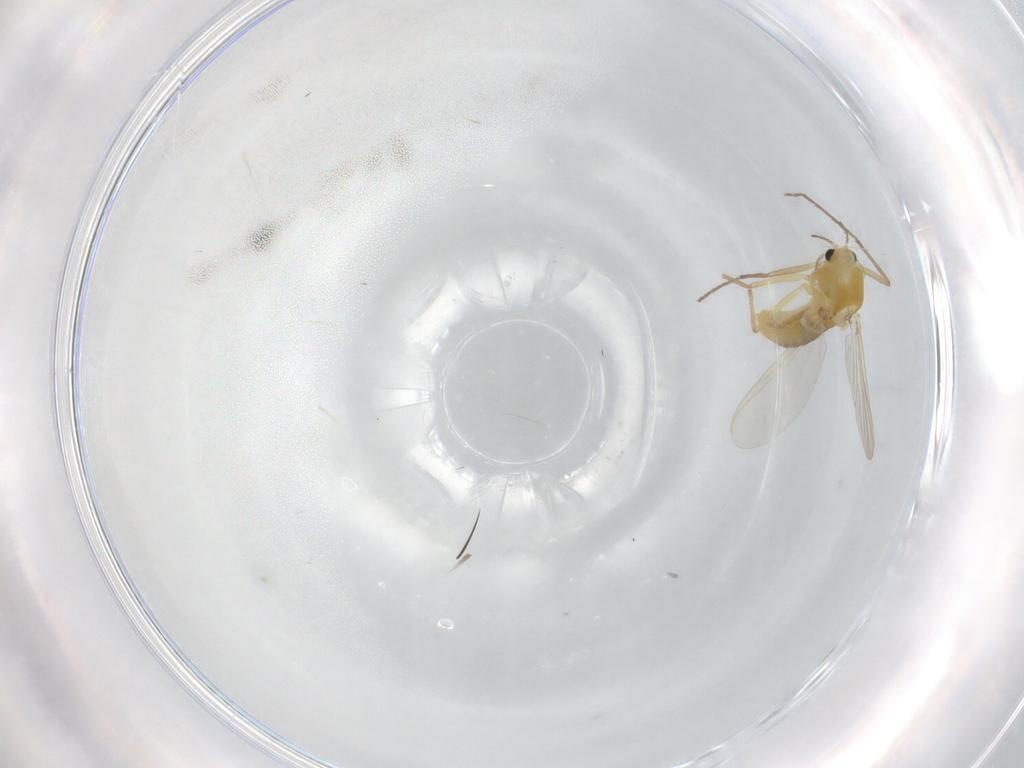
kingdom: Animalia
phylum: Arthropoda
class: Insecta
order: Diptera
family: Chironomidae
